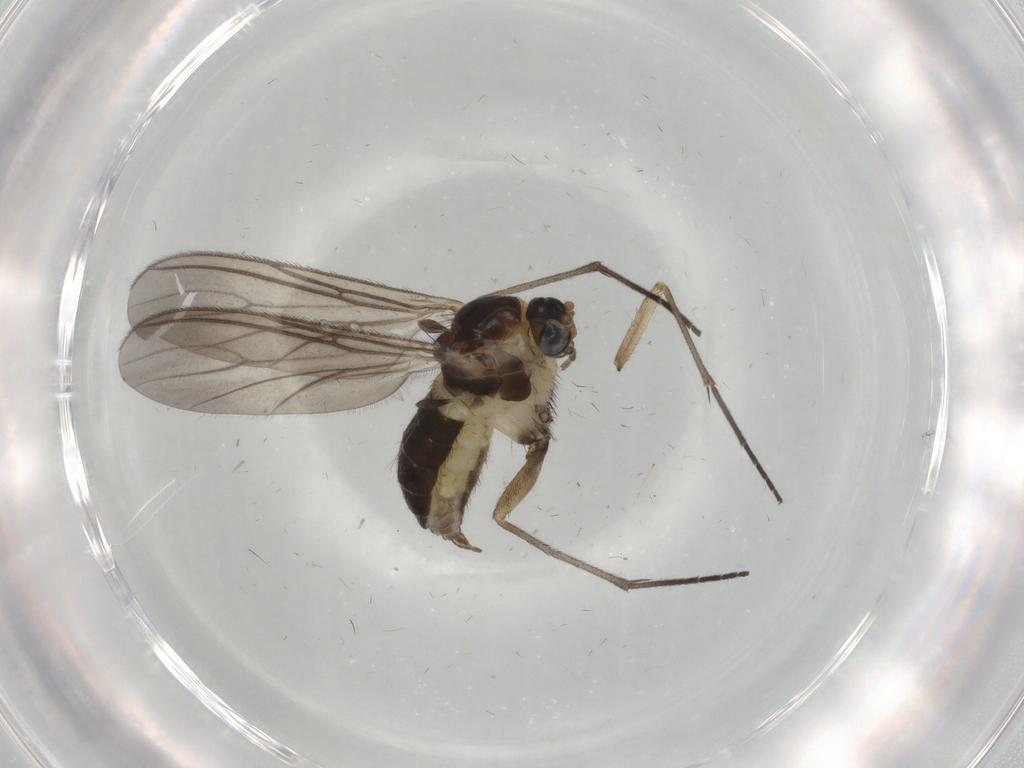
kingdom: Animalia
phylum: Arthropoda
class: Insecta
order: Diptera
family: Sciaridae
